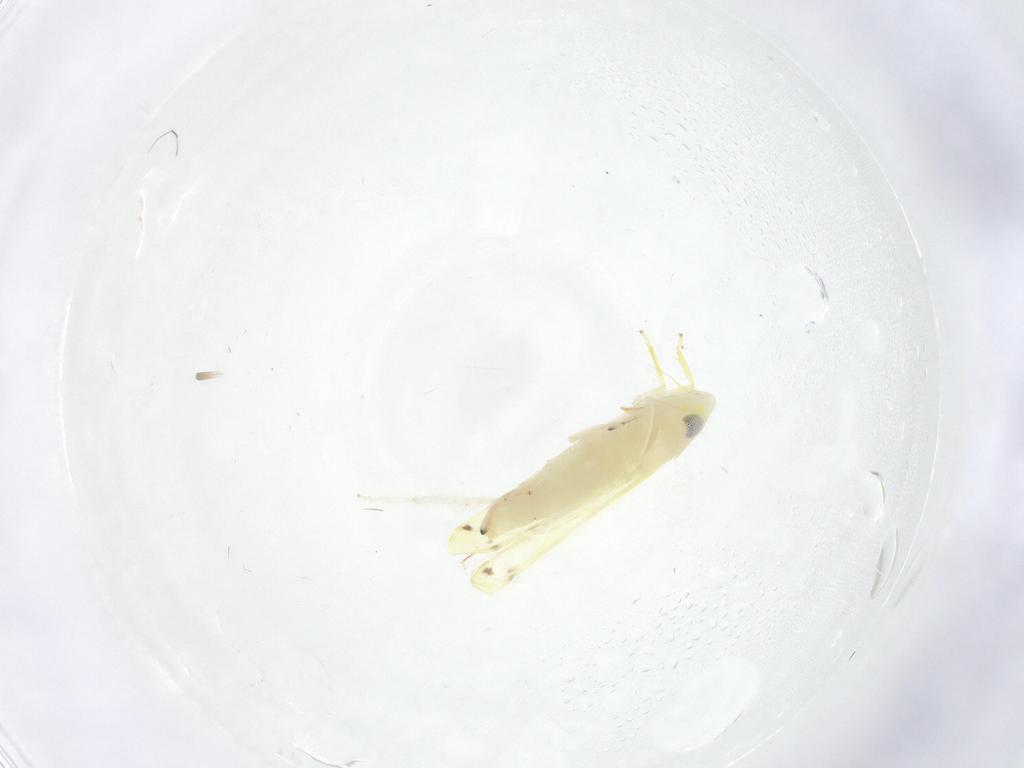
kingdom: Animalia
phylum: Arthropoda
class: Insecta
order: Hemiptera
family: Cicadellidae
